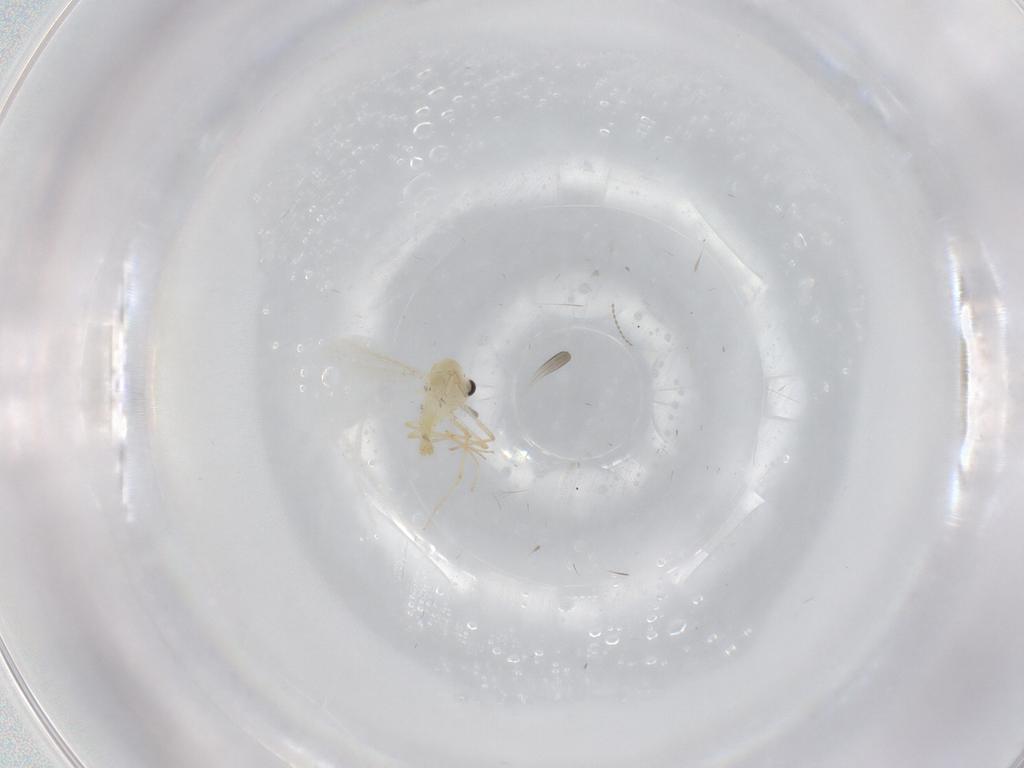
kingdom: Animalia
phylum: Arthropoda
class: Insecta
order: Diptera
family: Chironomidae
